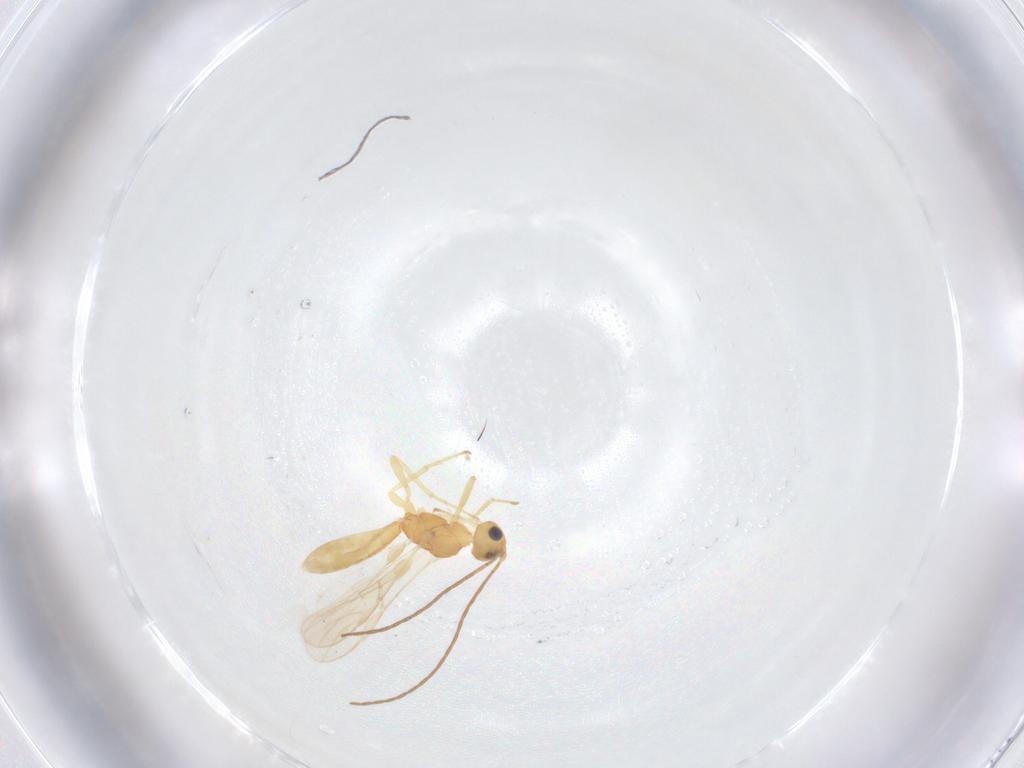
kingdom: Animalia
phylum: Arthropoda
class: Insecta
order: Hymenoptera
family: Braconidae
